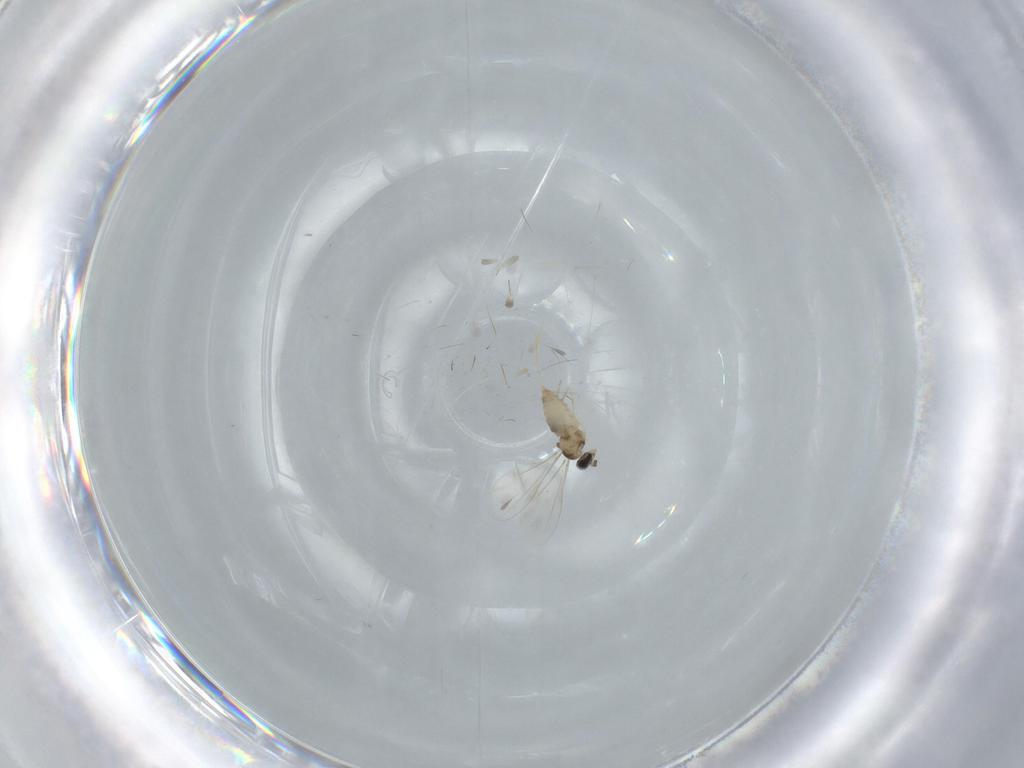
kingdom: Animalia
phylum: Arthropoda
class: Insecta
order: Diptera
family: Cecidomyiidae
